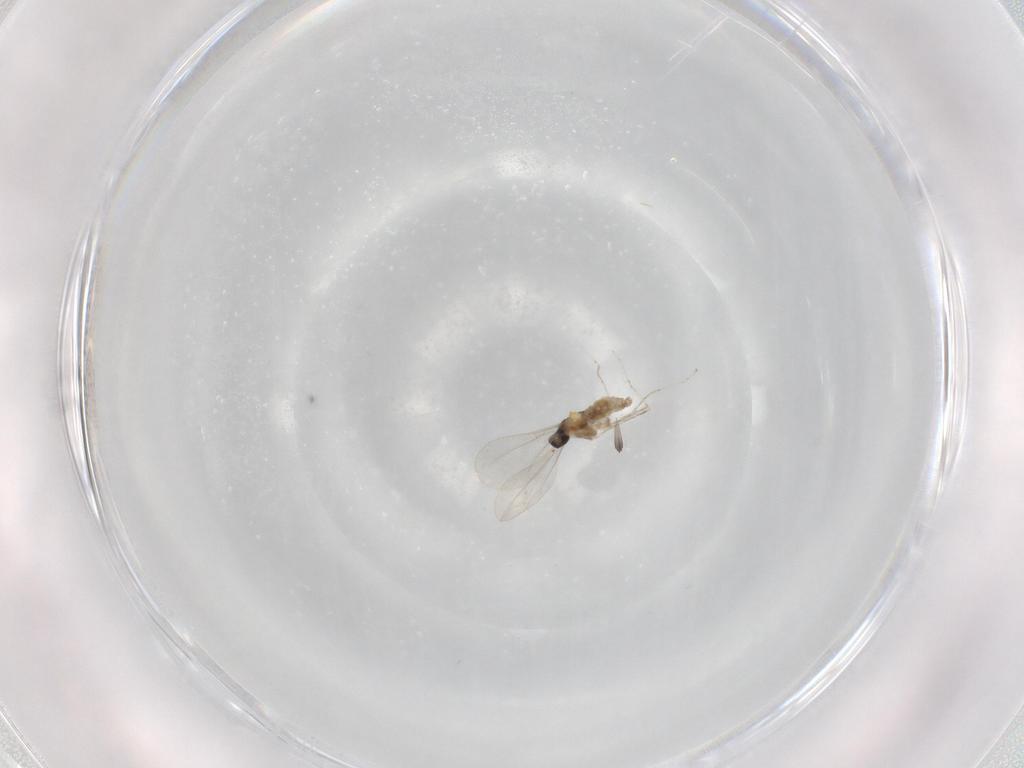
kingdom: Animalia
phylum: Arthropoda
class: Insecta
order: Diptera
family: Cecidomyiidae
